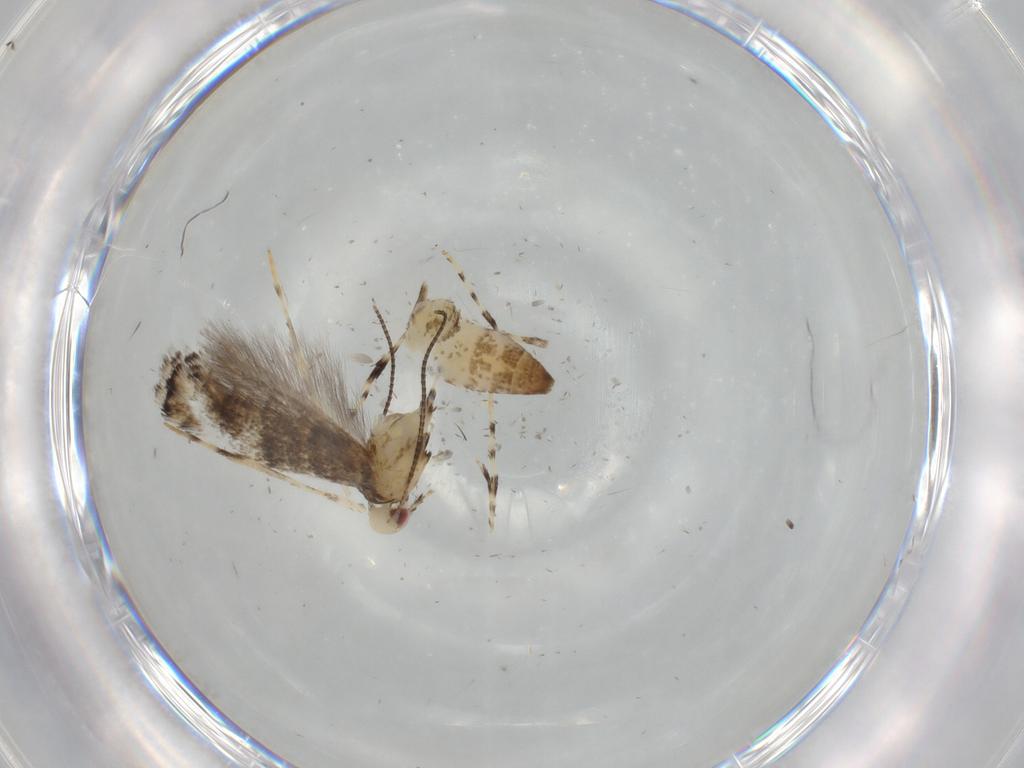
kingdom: Animalia
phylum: Arthropoda
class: Insecta
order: Lepidoptera
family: Gracillariidae
